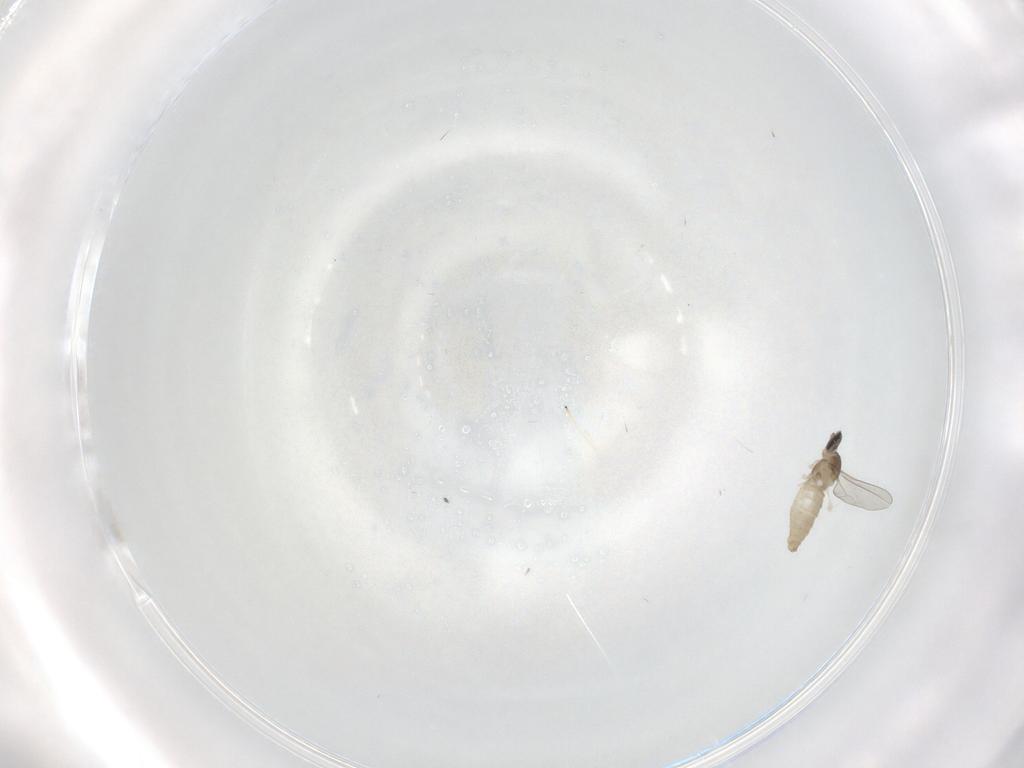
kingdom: Animalia
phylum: Arthropoda
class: Insecta
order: Diptera
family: Cecidomyiidae
